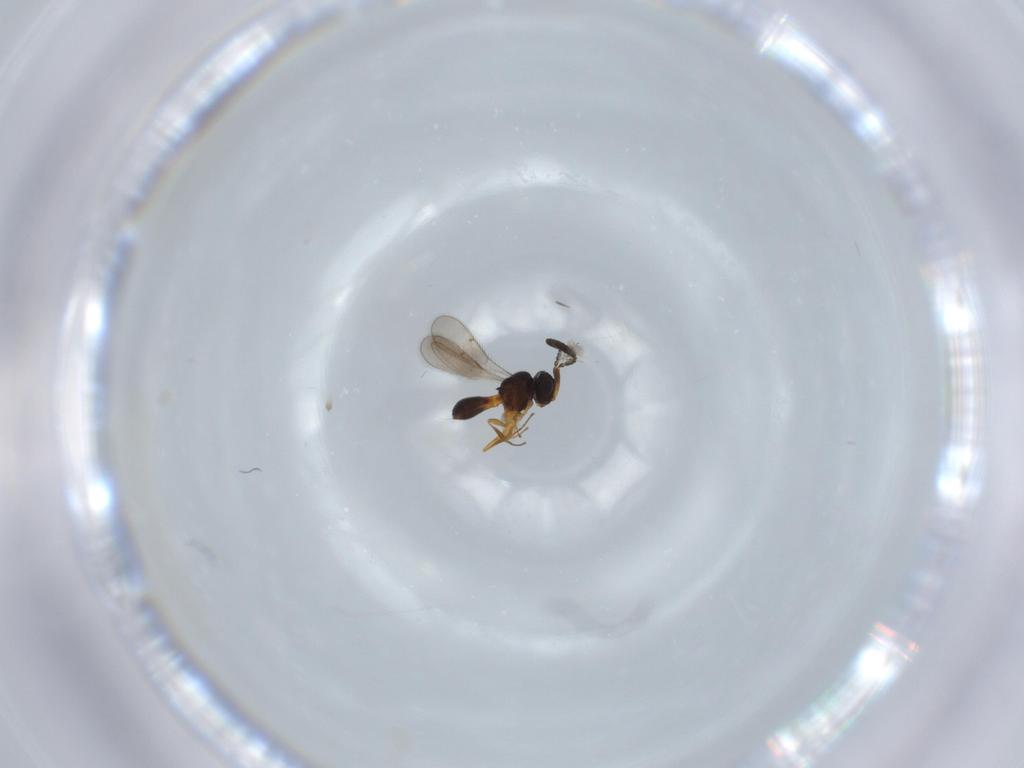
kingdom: Animalia
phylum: Arthropoda
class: Insecta
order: Hymenoptera
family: Scelionidae
